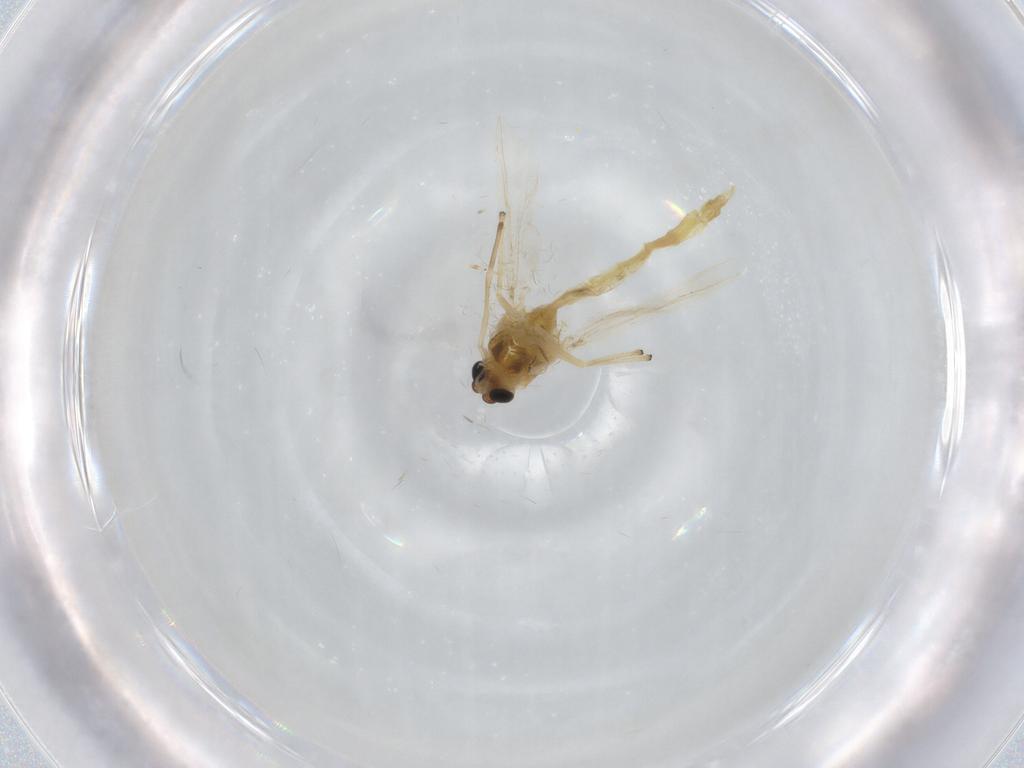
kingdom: Animalia
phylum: Arthropoda
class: Insecta
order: Diptera
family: Chironomidae
